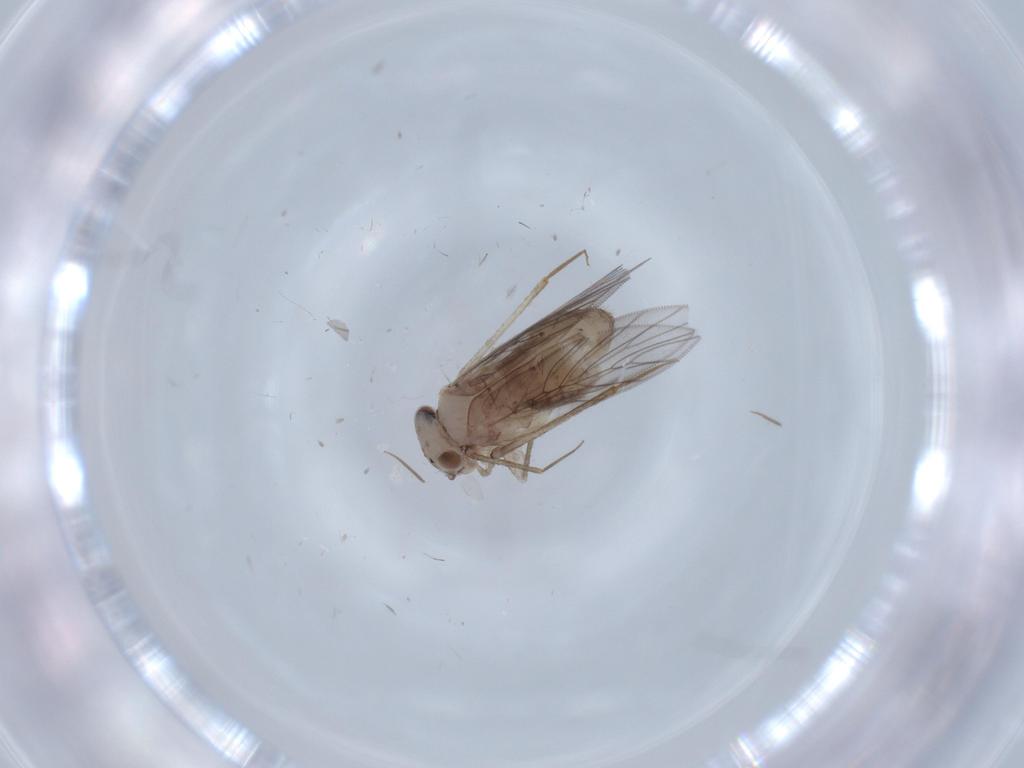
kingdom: Animalia
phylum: Arthropoda
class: Insecta
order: Psocodea
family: Lepidopsocidae
